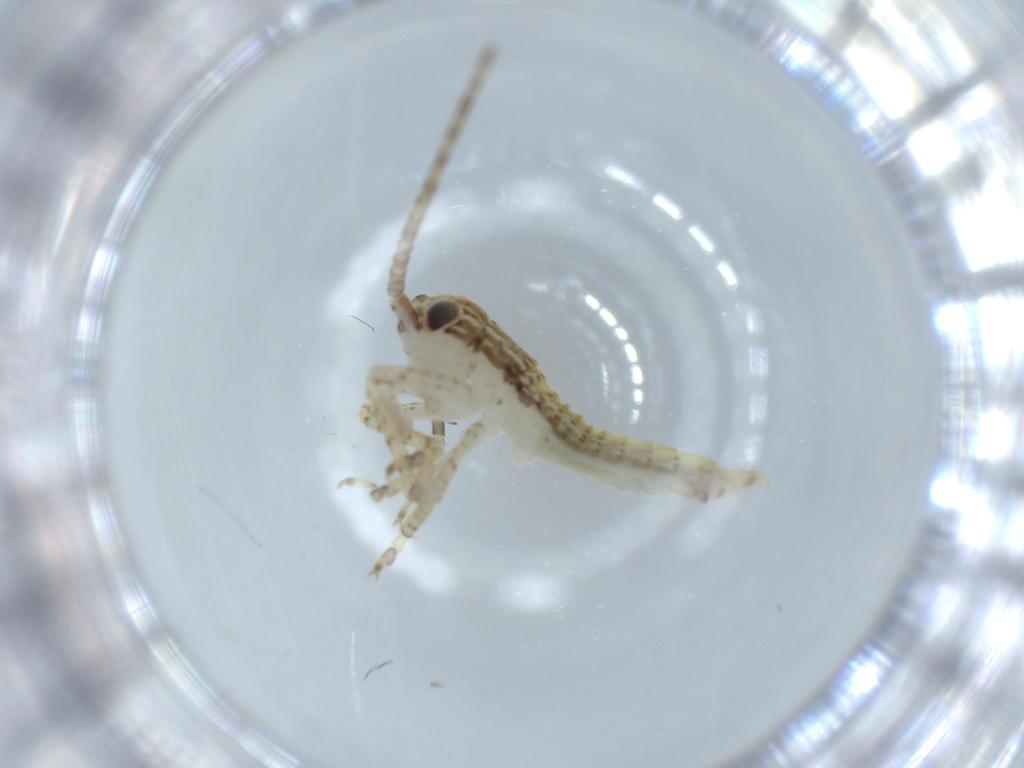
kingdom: Animalia
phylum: Arthropoda
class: Insecta
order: Orthoptera
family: Gryllidae
